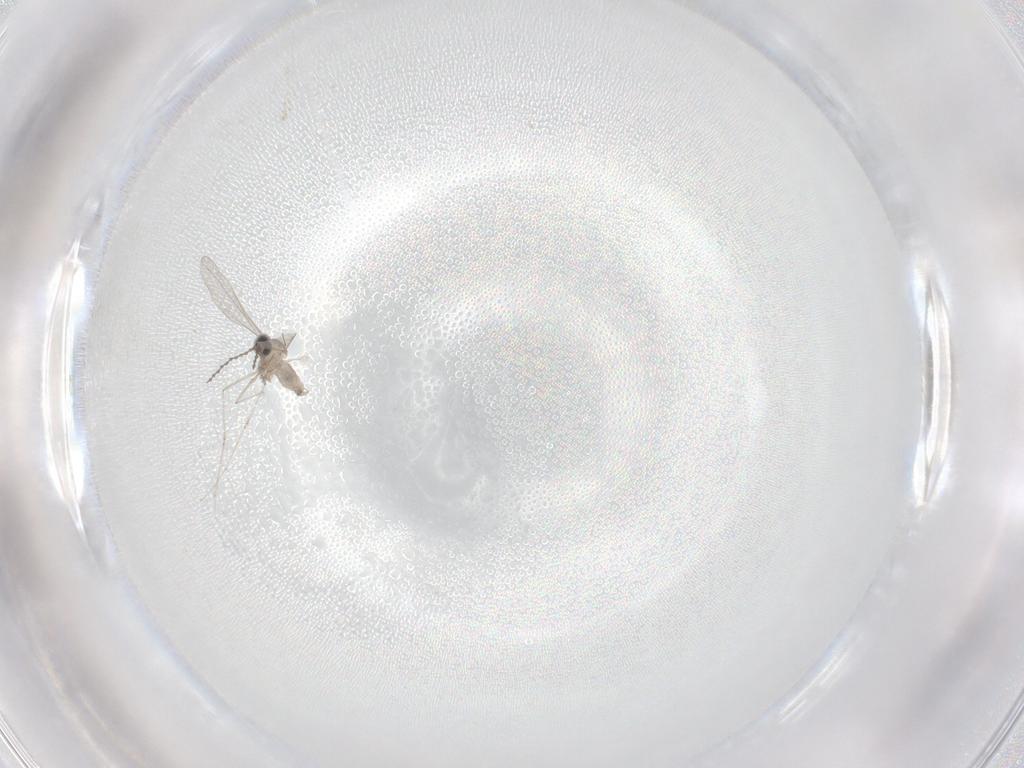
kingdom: Animalia
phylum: Arthropoda
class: Insecta
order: Diptera
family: Cecidomyiidae
